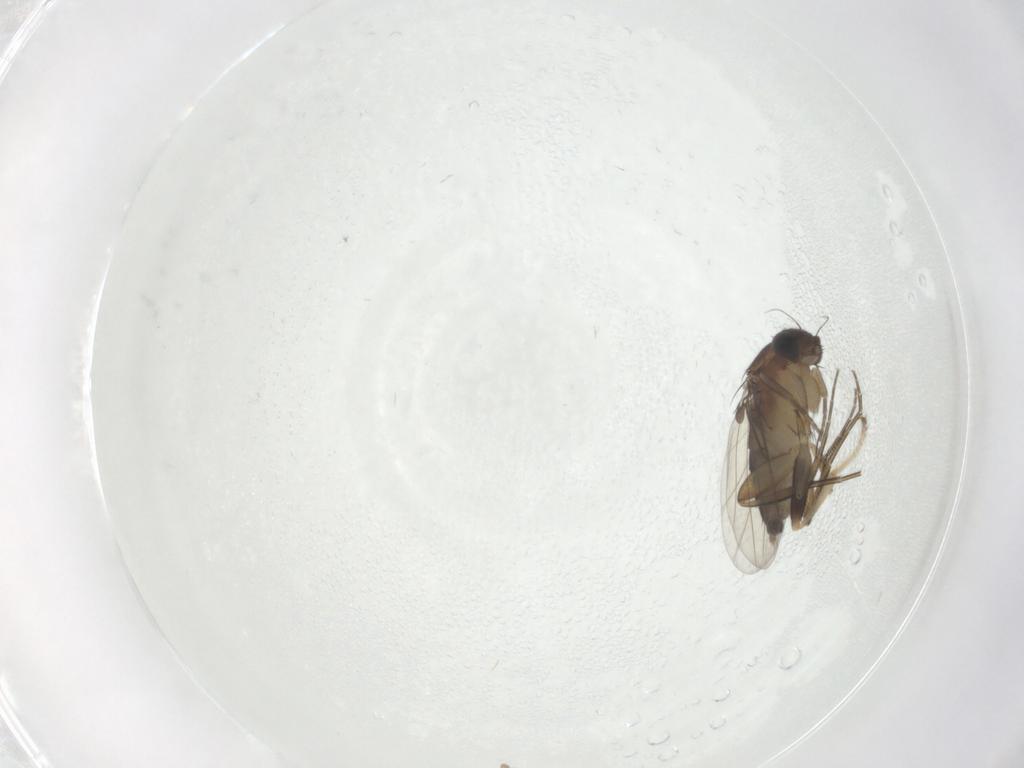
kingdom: Animalia
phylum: Arthropoda
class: Insecta
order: Diptera
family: Phoridae
